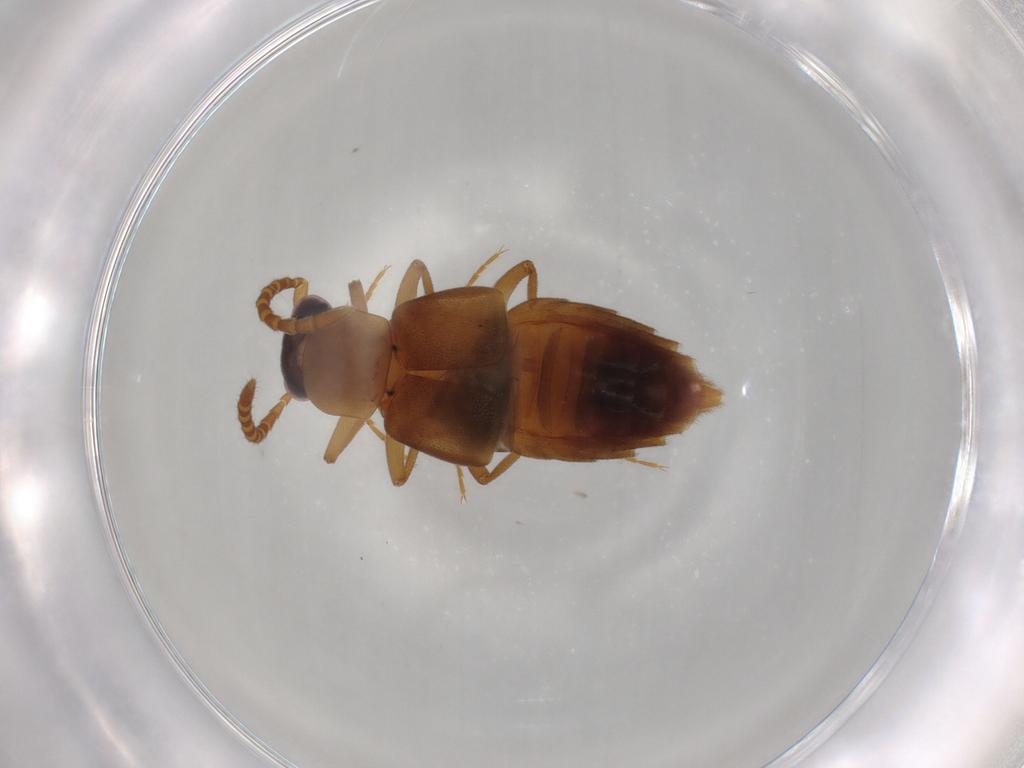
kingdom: Animalia
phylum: Arthropoda
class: Insecta
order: Coleoptera
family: Staphylinidae
